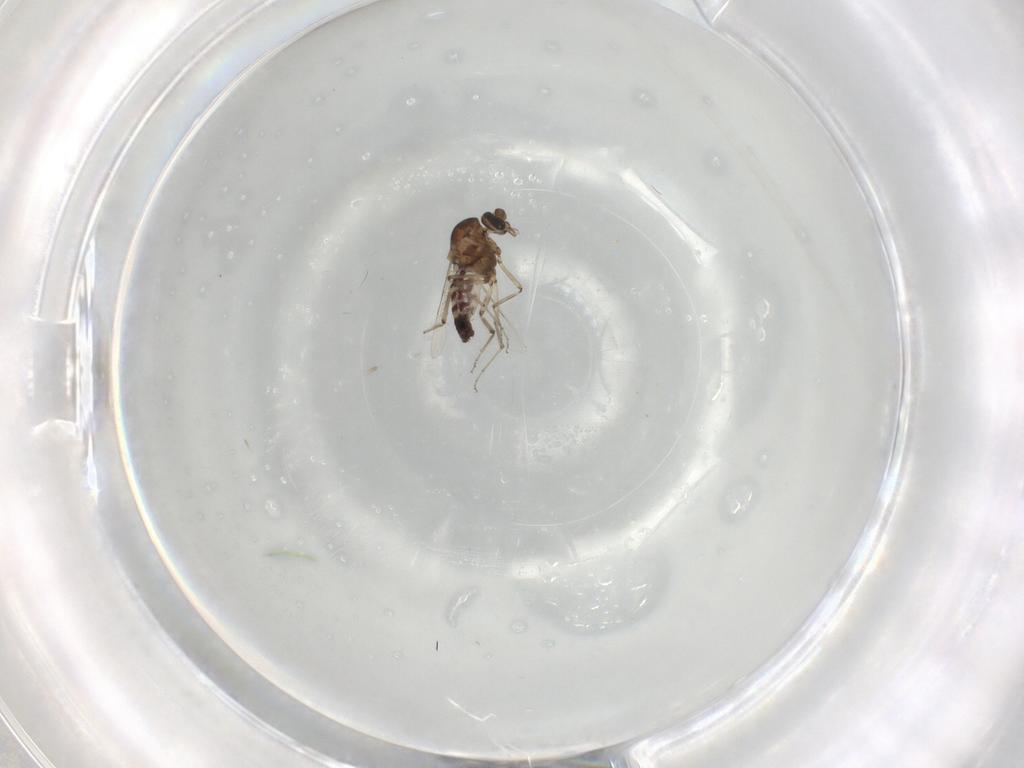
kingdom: Animalia
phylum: Arthropoda
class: Insecta
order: Diptera
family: Ceratopogonidae
